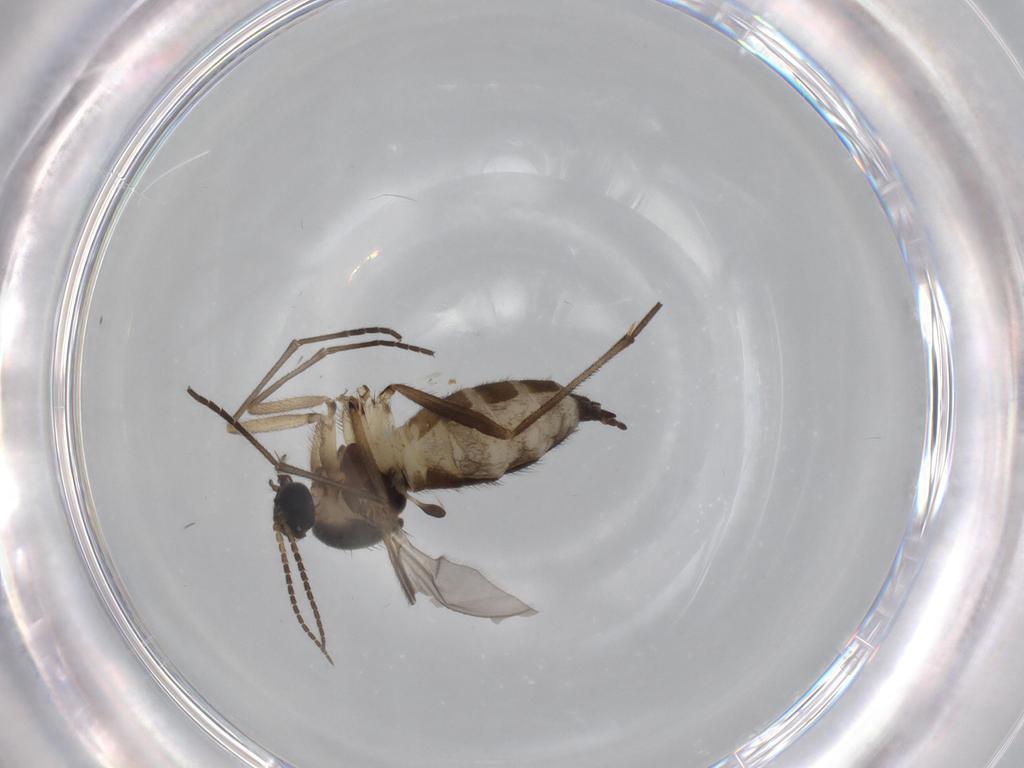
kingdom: Animalia
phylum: Arthropoda
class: Insecta
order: Diptera
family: Sciaridae
